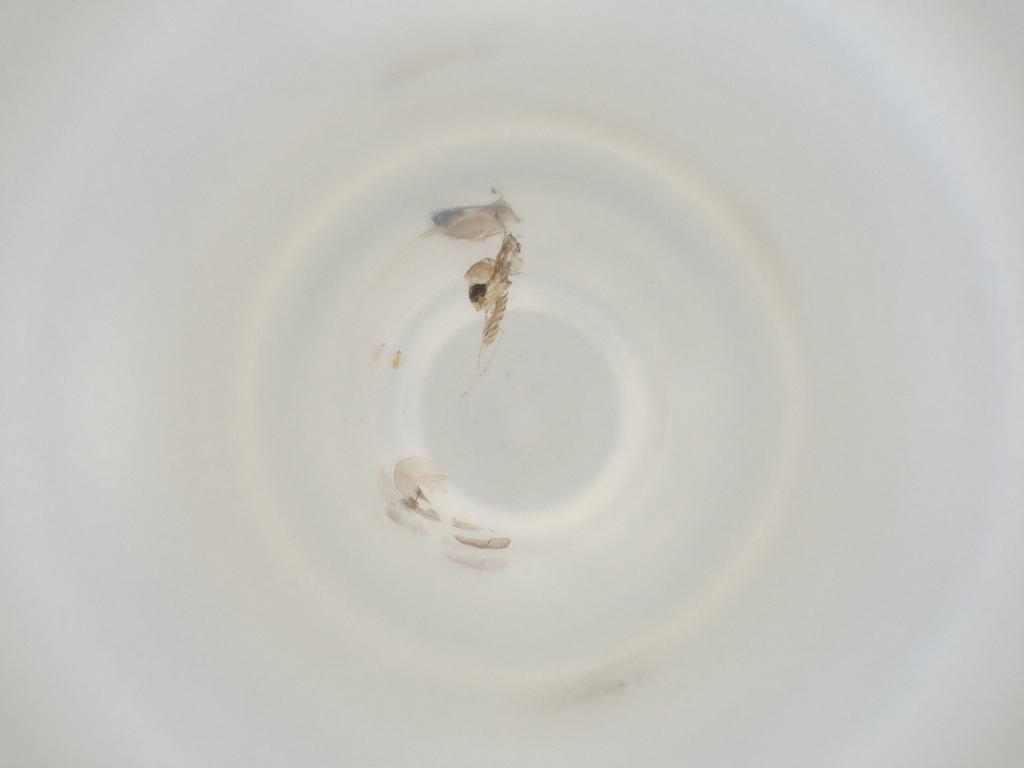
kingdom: Animalia
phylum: Arthropoda
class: Insecta
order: Diptera
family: Cecidomyiidae
